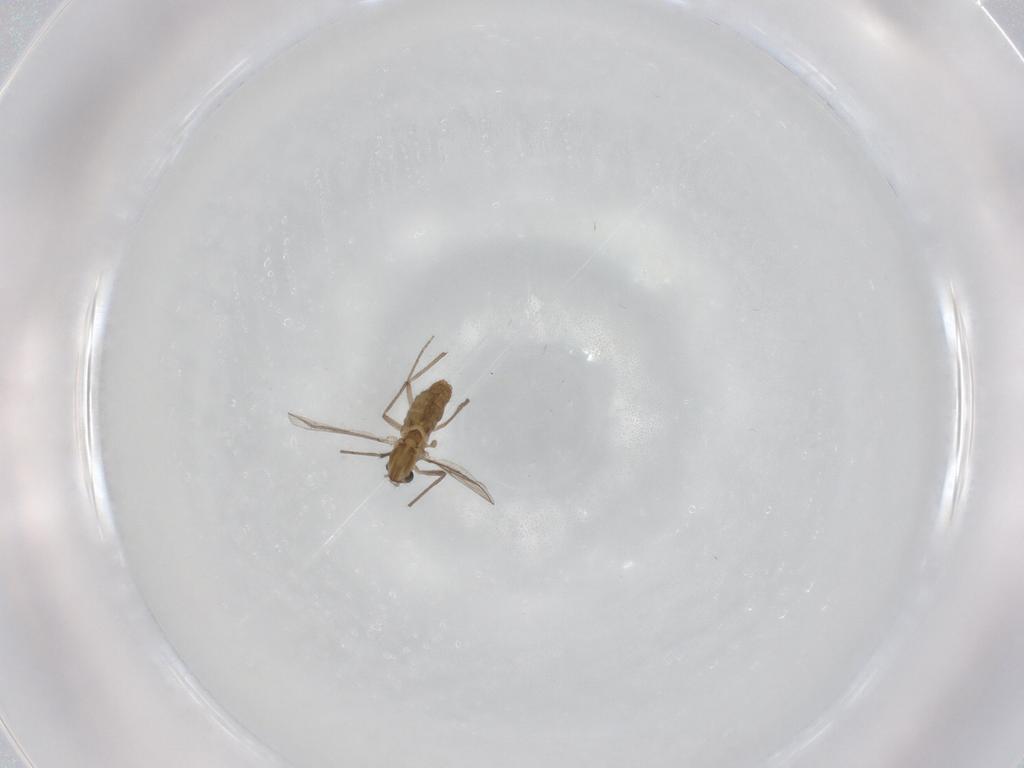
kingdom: Animalia
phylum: Arthropoda
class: Insecta
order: Diptera
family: Chironomidae
